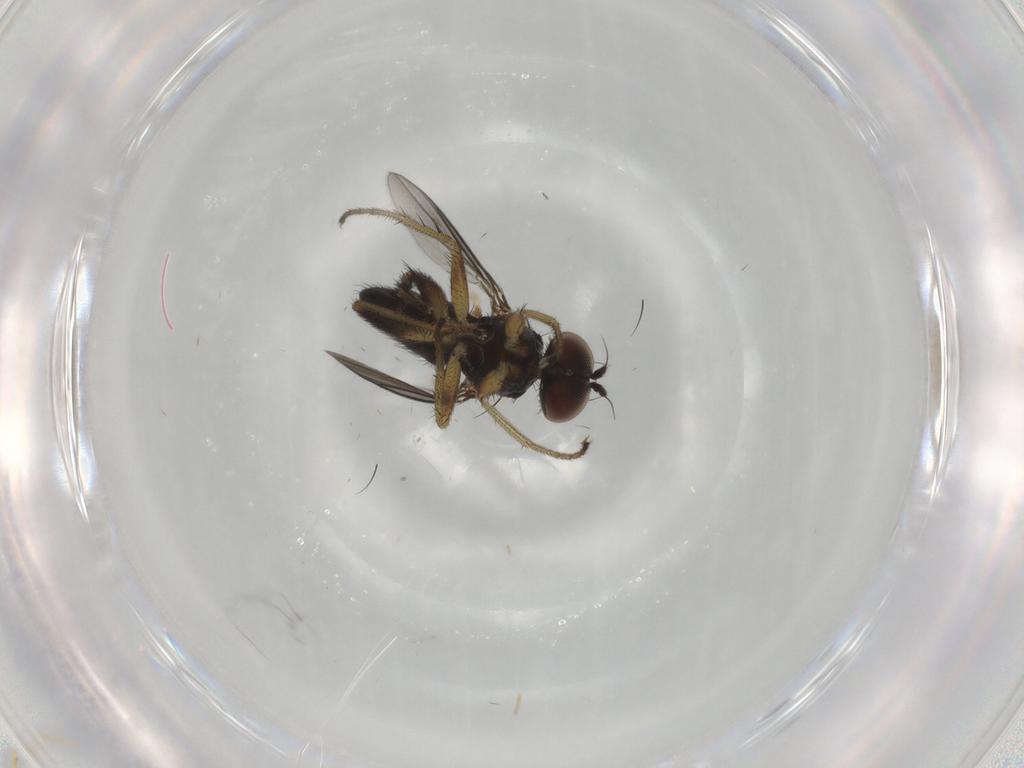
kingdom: Animalia
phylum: Arthropoda
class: Insecta
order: Diptera
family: Dolichopodidae
